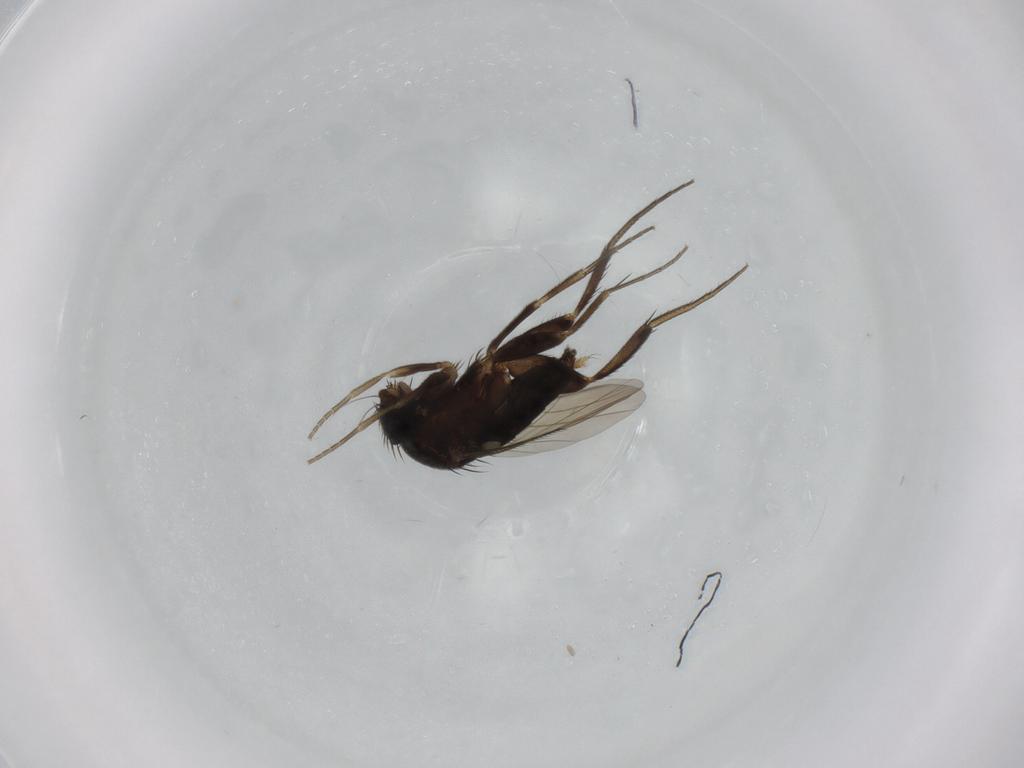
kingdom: Animalia
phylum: Arthropoda
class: Insecta
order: Diptera
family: Phoridae
